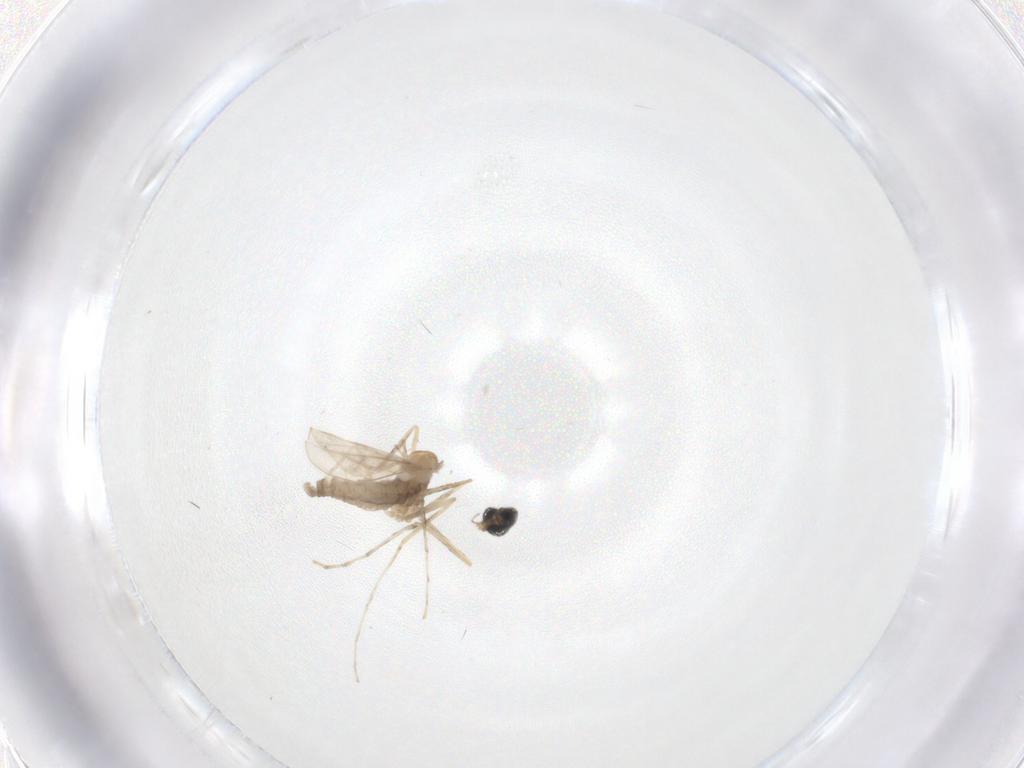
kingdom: Animalia
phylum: Arthropoda
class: Insecta
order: Diptera
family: Cecidomyiidae
